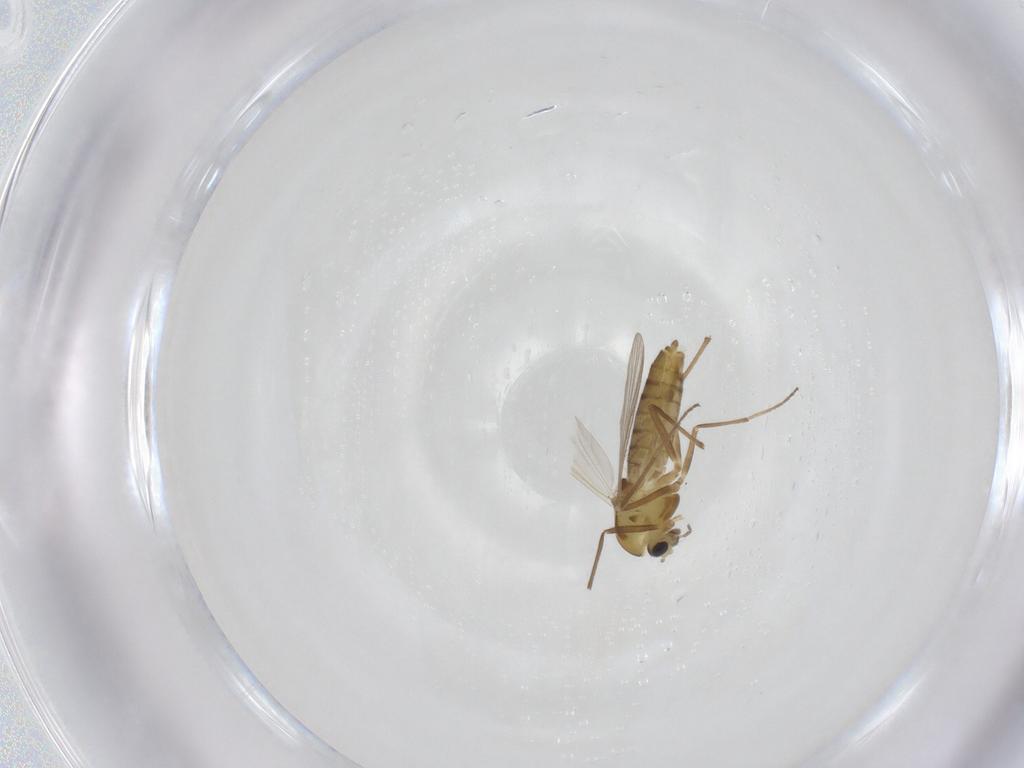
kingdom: Animalia
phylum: Arthropoda
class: Insecta
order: Diptera
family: Chironomidae
